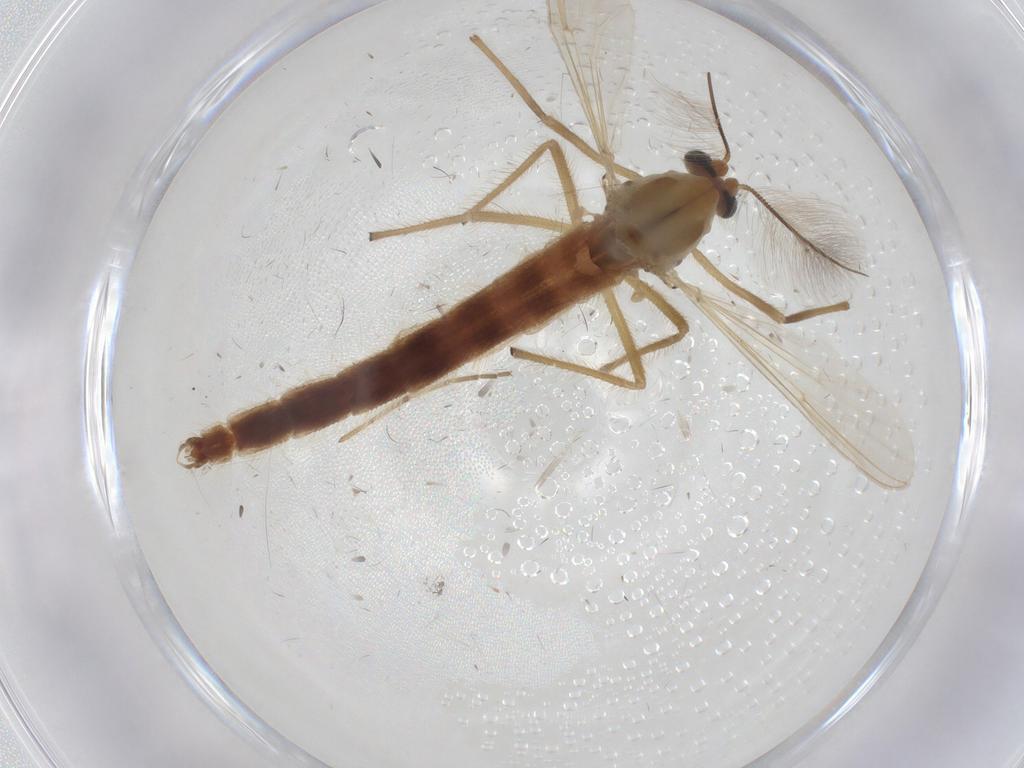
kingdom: Animalia
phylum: Arthropoda
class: Insecta
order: Diptera
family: Chironomidae
